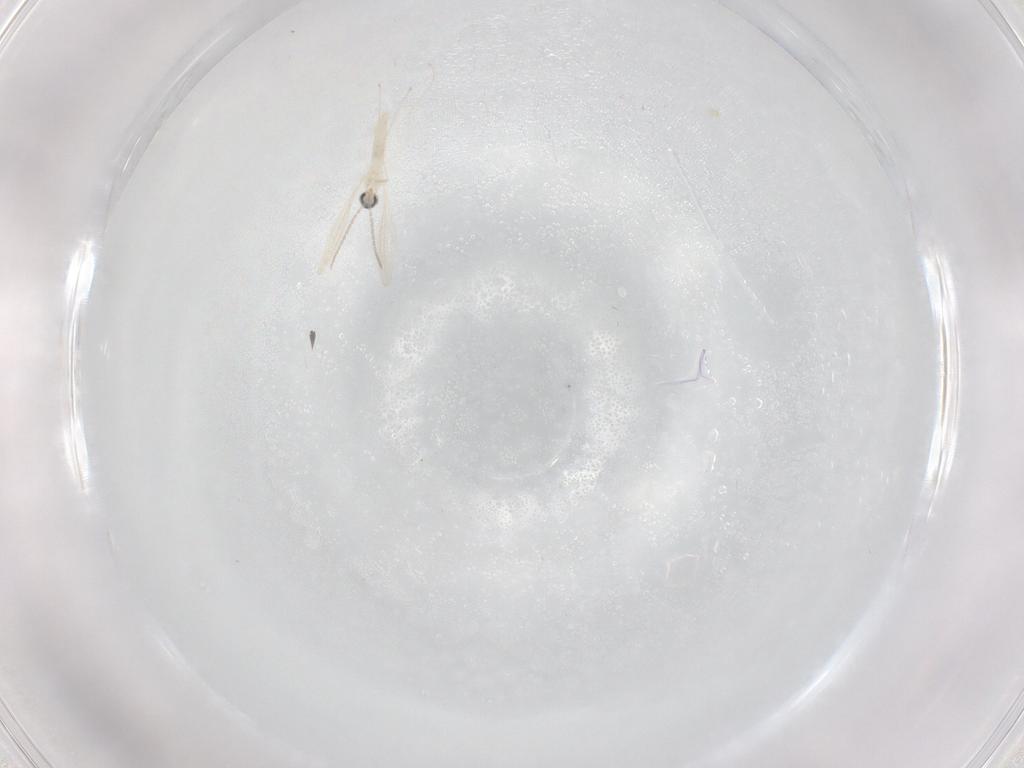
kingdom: Animalia
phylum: Arthropoda
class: Insecta
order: Diptera
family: Cecidomyiidae
